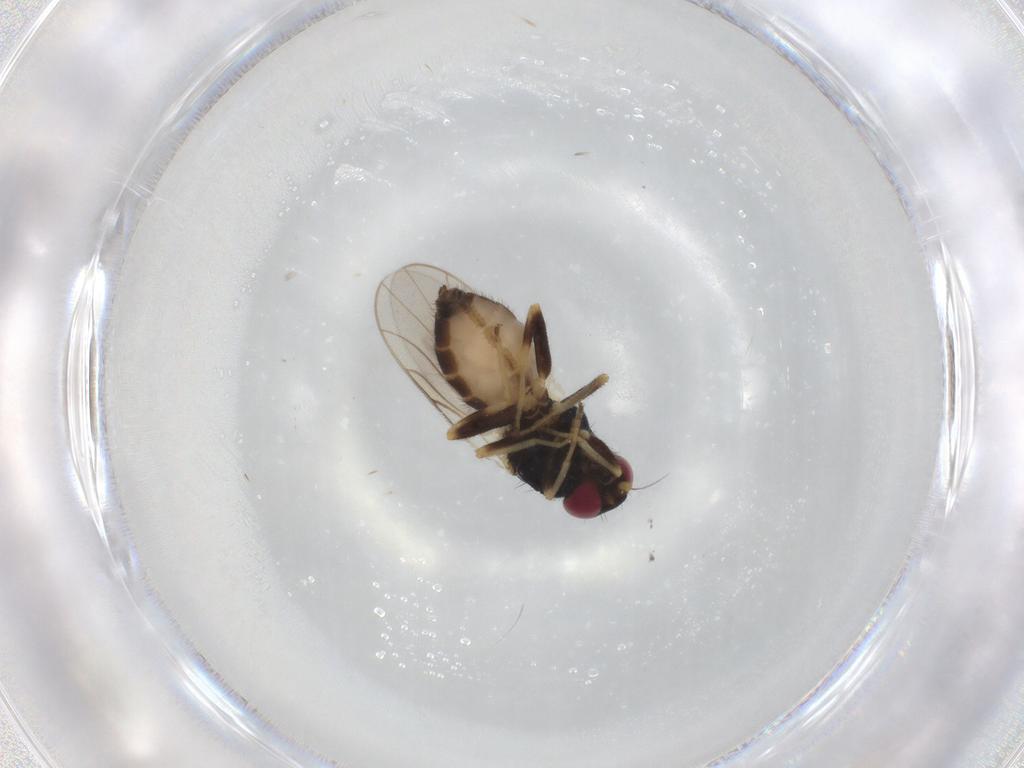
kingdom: Animalia
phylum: Arthropoda
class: Insecta
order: Diptera
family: Chloropidae
